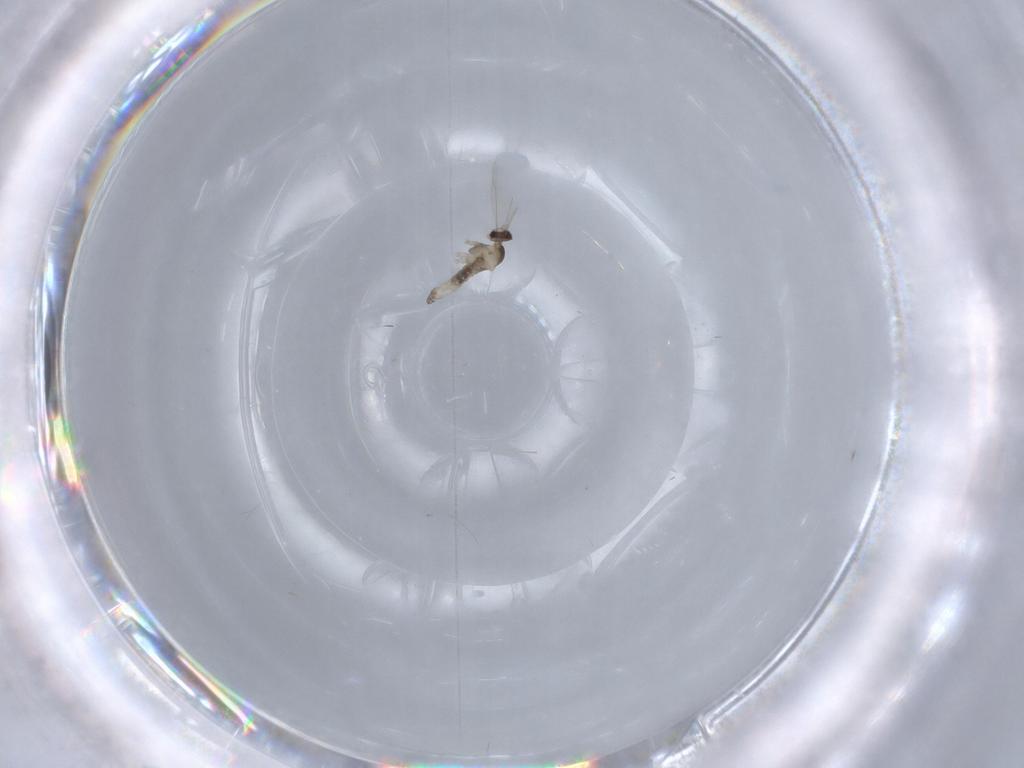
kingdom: Animalia
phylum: Arthropoda
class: Insecta
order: Diptera
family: Cecidomyiidae
